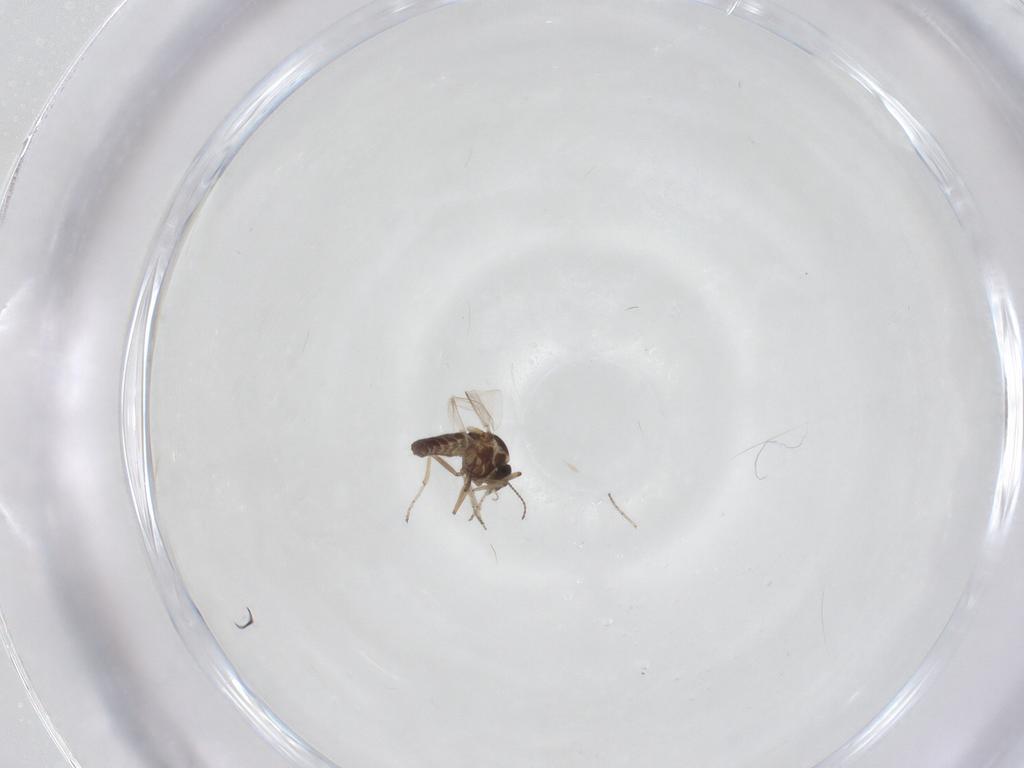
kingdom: Animalia
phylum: Arthropoda
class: Insecta
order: Diptera
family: Ceratopogonidae
